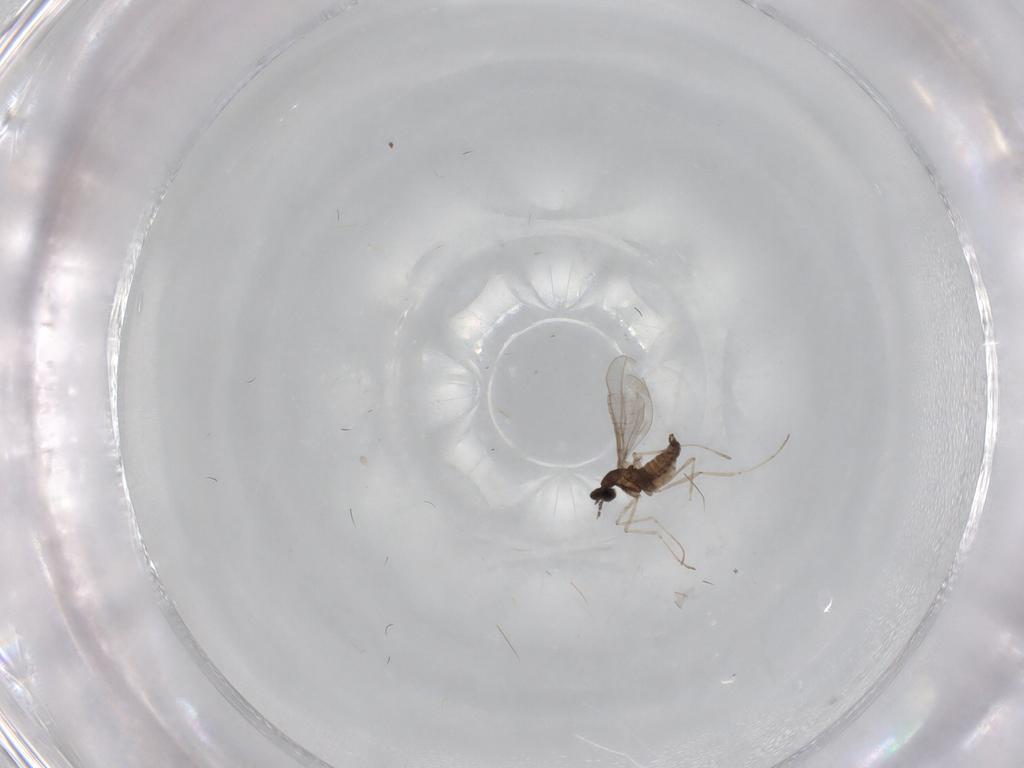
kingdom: Animalia
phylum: Arthropoda
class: Insecta
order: Diptera
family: Cecidomyiidae
